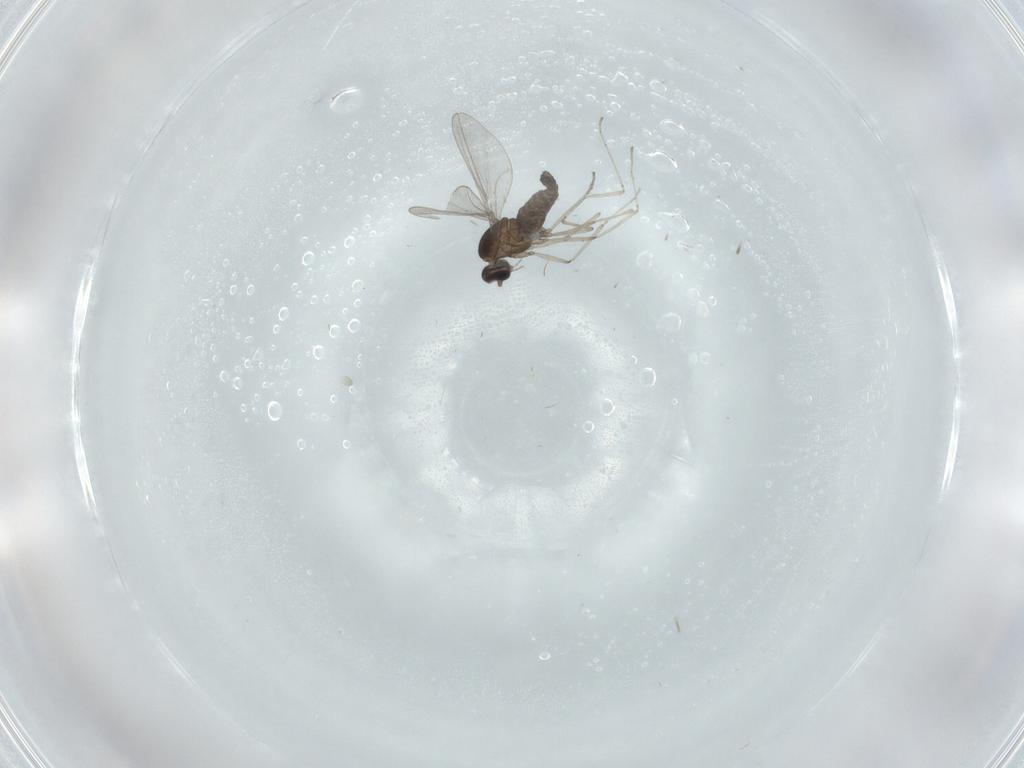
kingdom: Animalia
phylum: Arthropoda
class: Insecta
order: Diptera
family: Chironomidae
